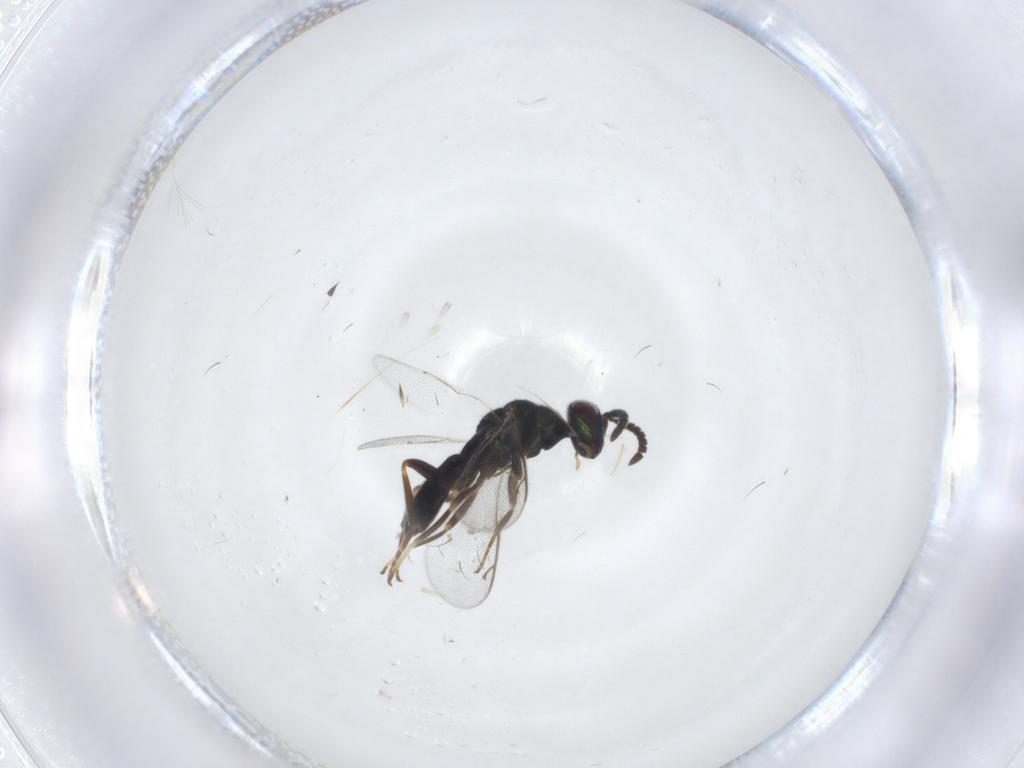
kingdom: Animalia
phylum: Arthropoda
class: Insecta
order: Hymenoptera
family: Cleonyminae
